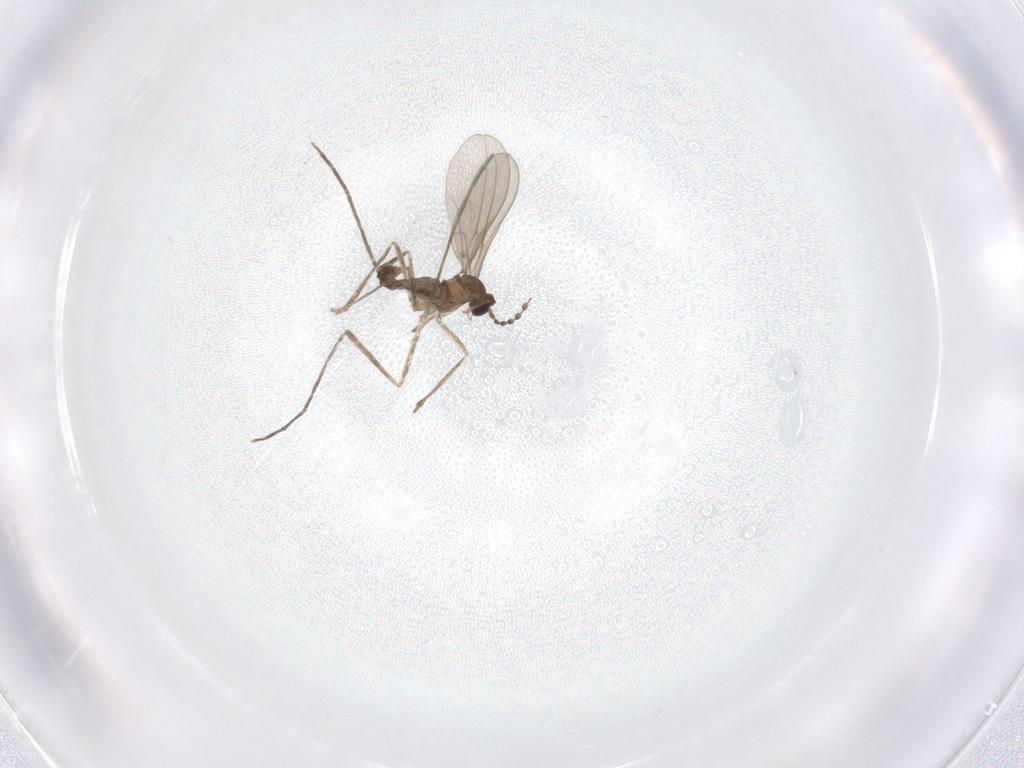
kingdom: Animalia
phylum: Arthropoda
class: Insecta
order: Diptera
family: Cecidomyiidae
